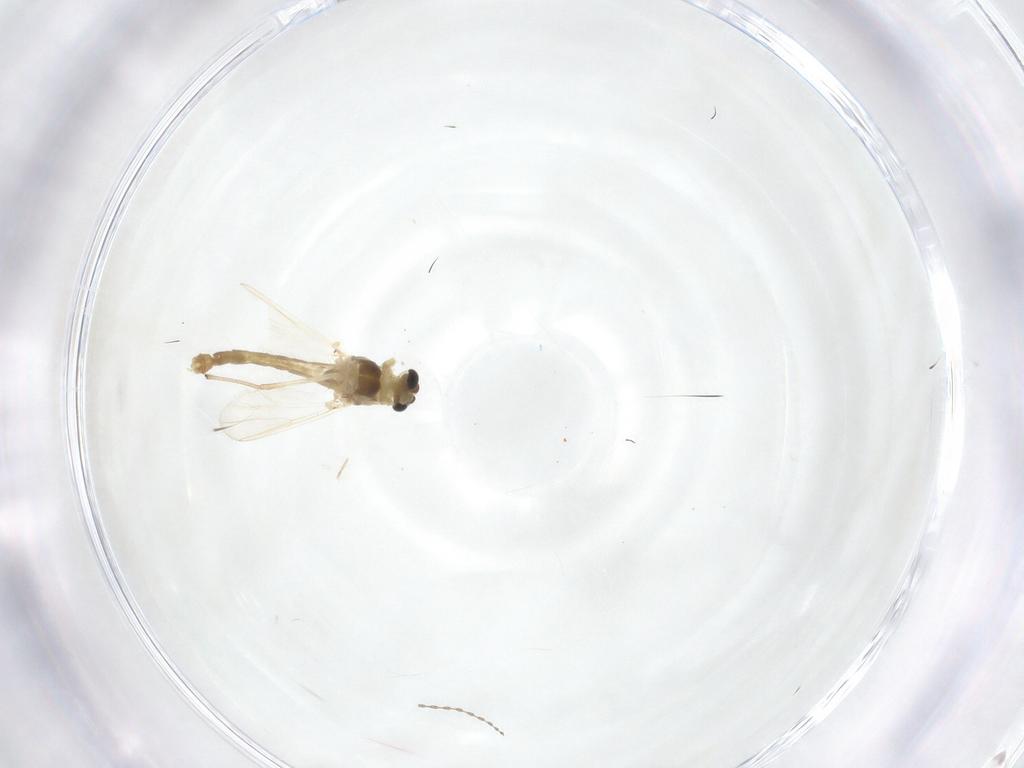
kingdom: Animalia
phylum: Arthropoda
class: Insecta
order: Diptera
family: Chironomidae
